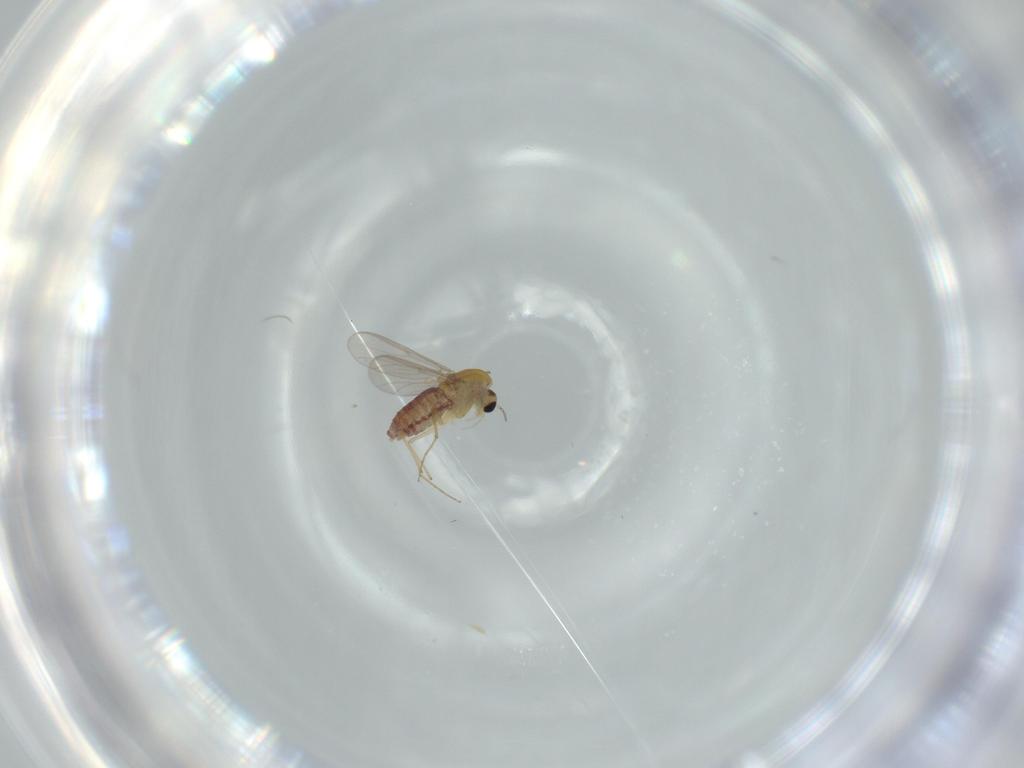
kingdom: Animalia
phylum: Arthropoda
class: Insecta
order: Diptera
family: Chironomidae
